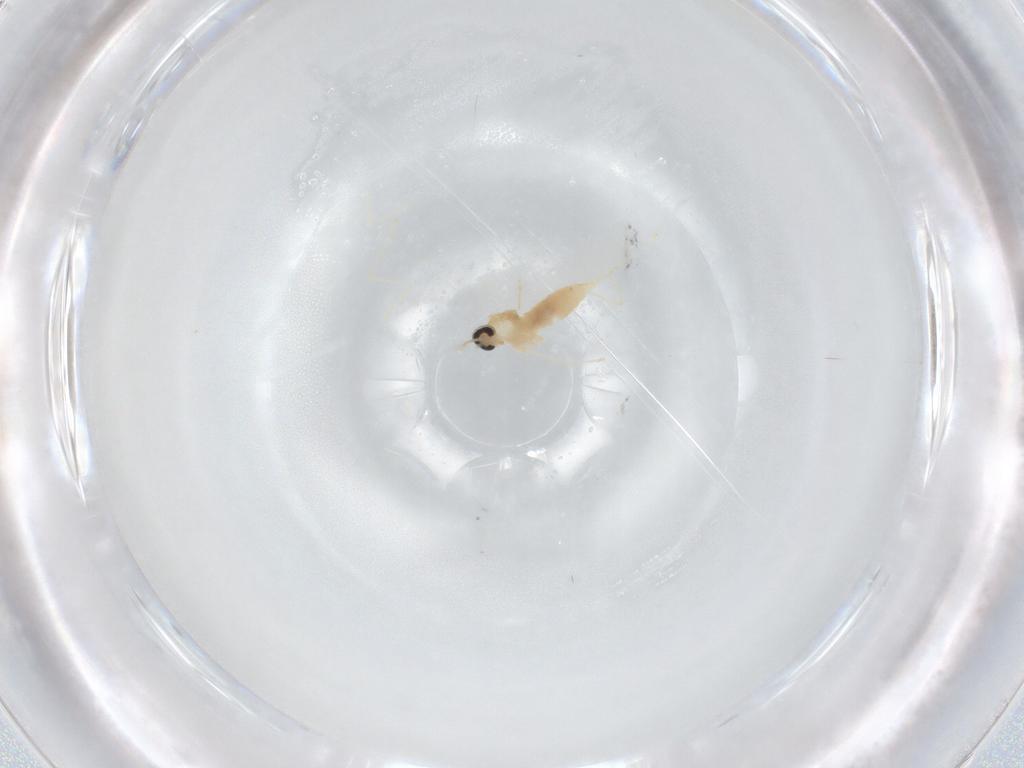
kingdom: Animalia
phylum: Arthropoda
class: Insecta
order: Diptera
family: Cecidomyiidae
